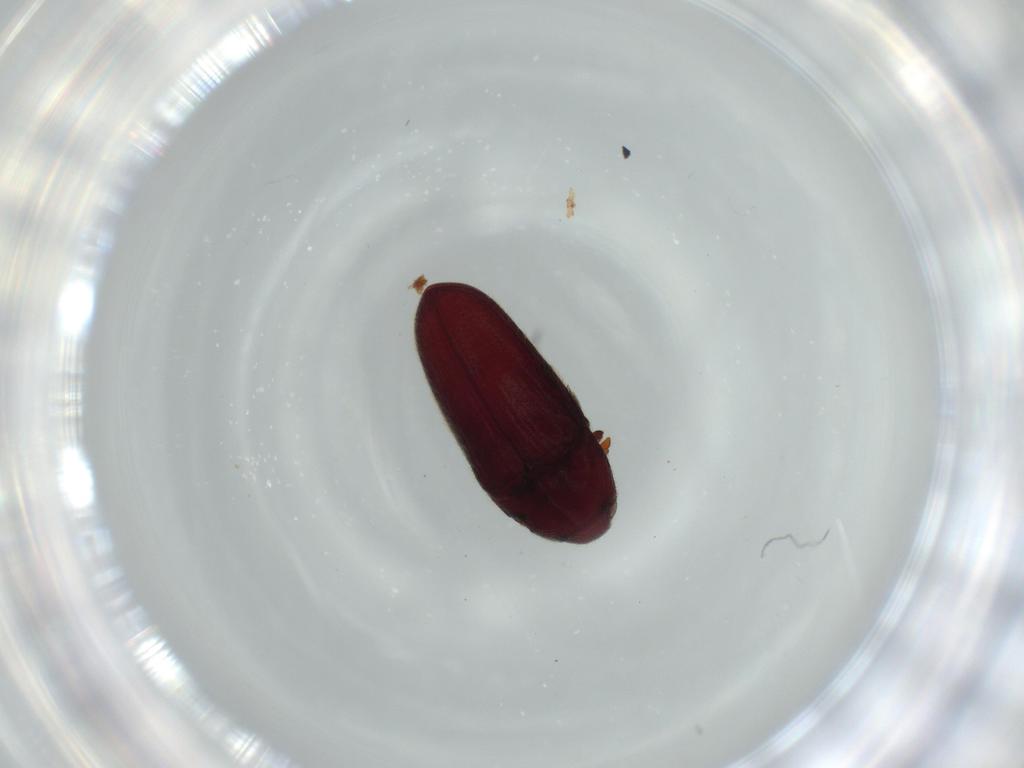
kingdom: Animalia
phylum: Arthropoda
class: Insecta
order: Coleoptera
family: Throscidae
